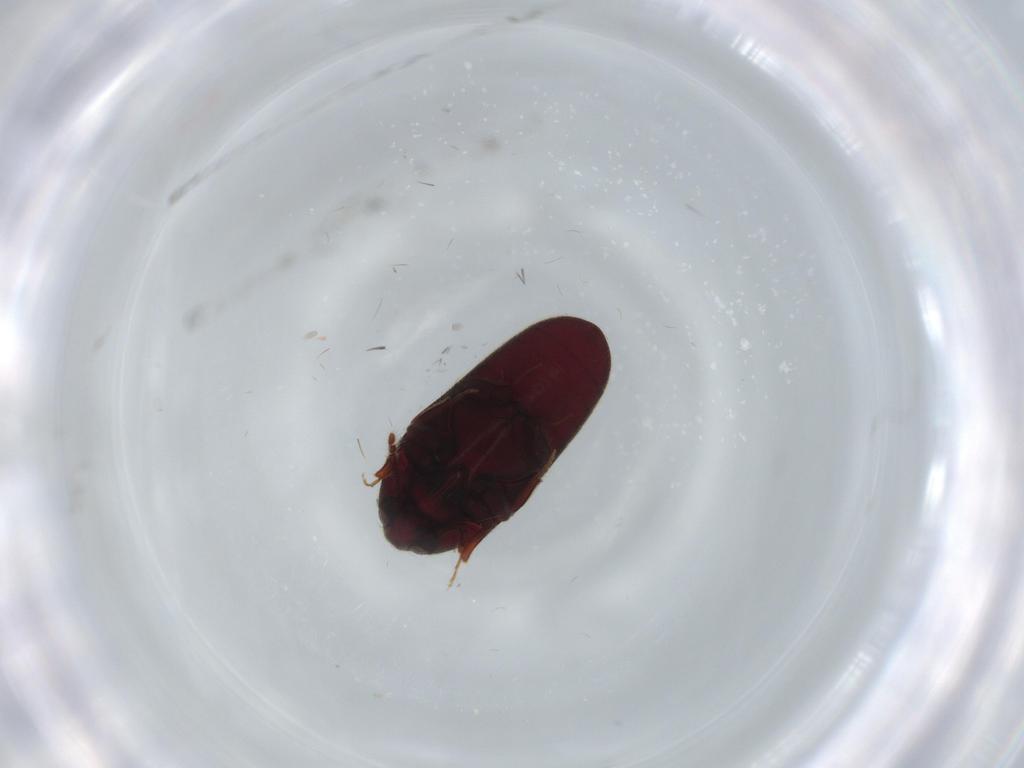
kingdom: Animalia
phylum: Arthropoda
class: Insecta
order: Coleoptera
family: Throscidae
